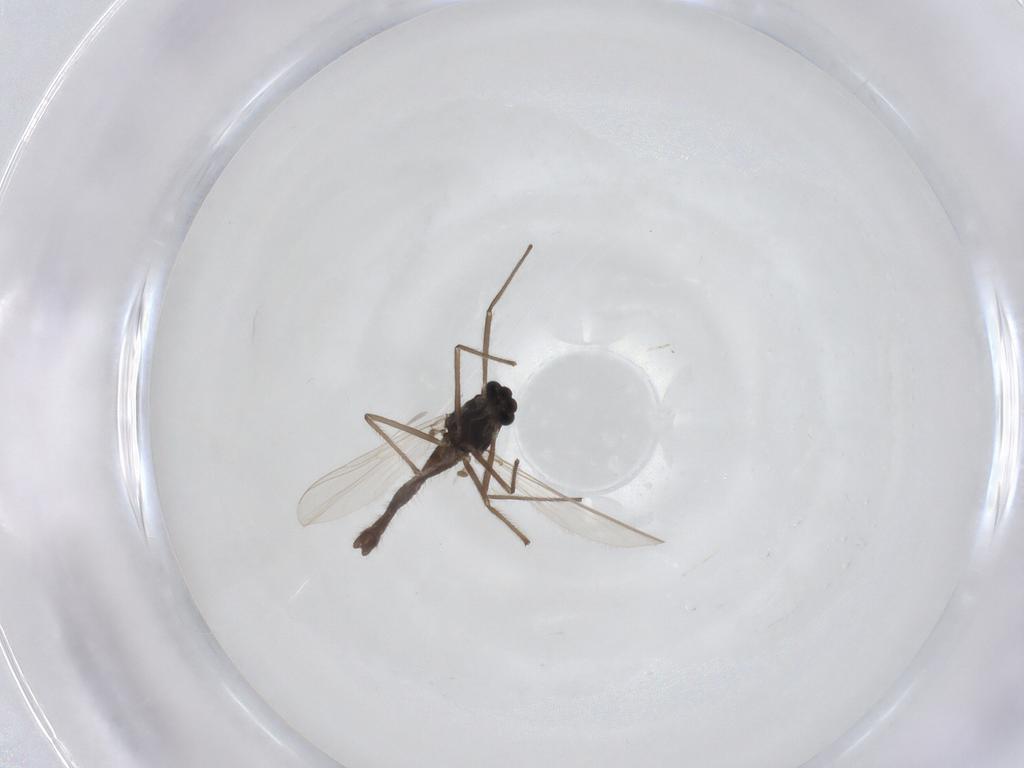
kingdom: Animalia
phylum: Arthropoda
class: Insecta
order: Diptera
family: Chironomidae
